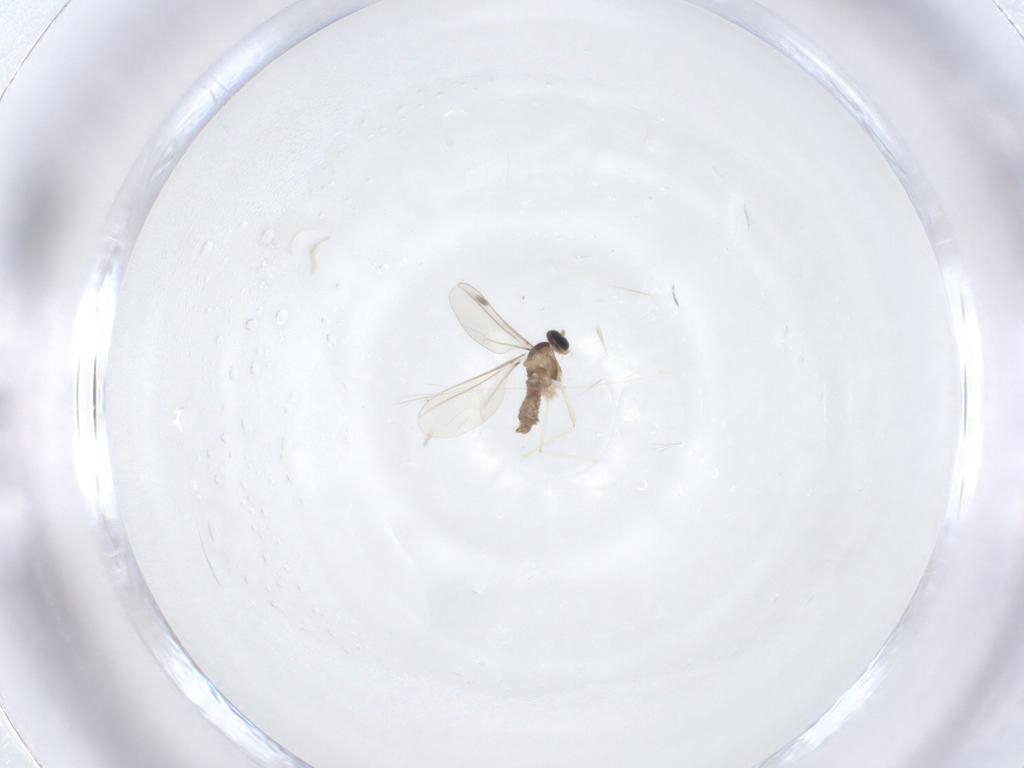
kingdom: Animalia
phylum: Arthropoda
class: Insecta
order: Diptera
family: Cecidomyiidae
